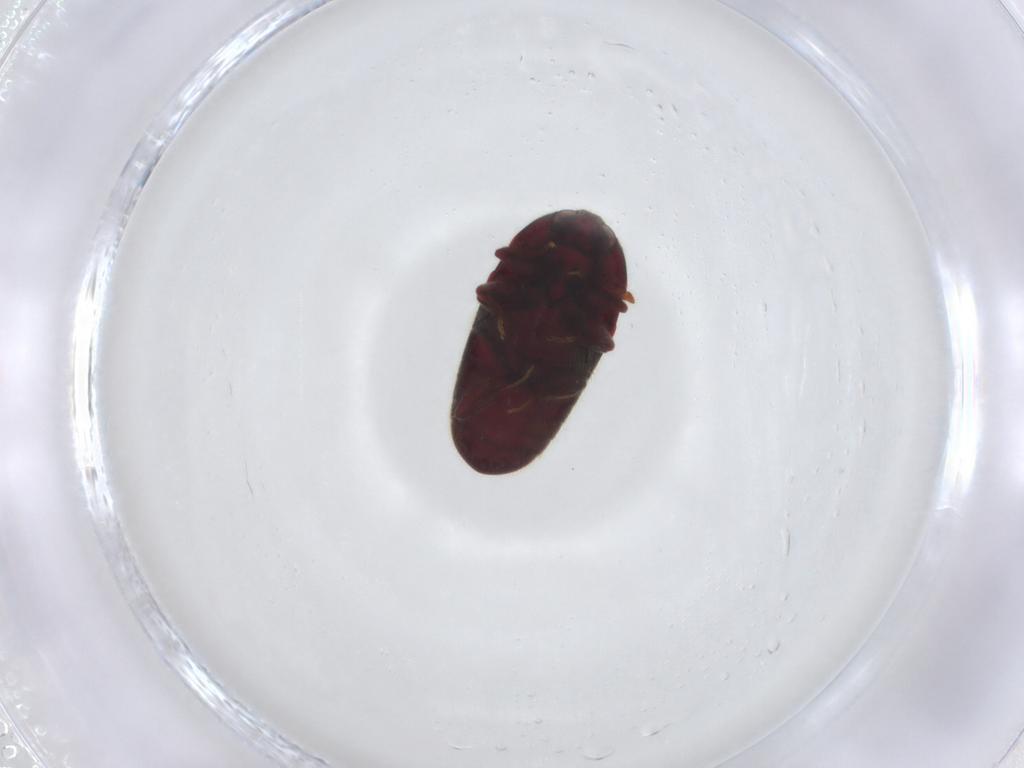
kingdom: Animalia
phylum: Arthropoda
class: Insecta
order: Coleoptera
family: Throscidae
